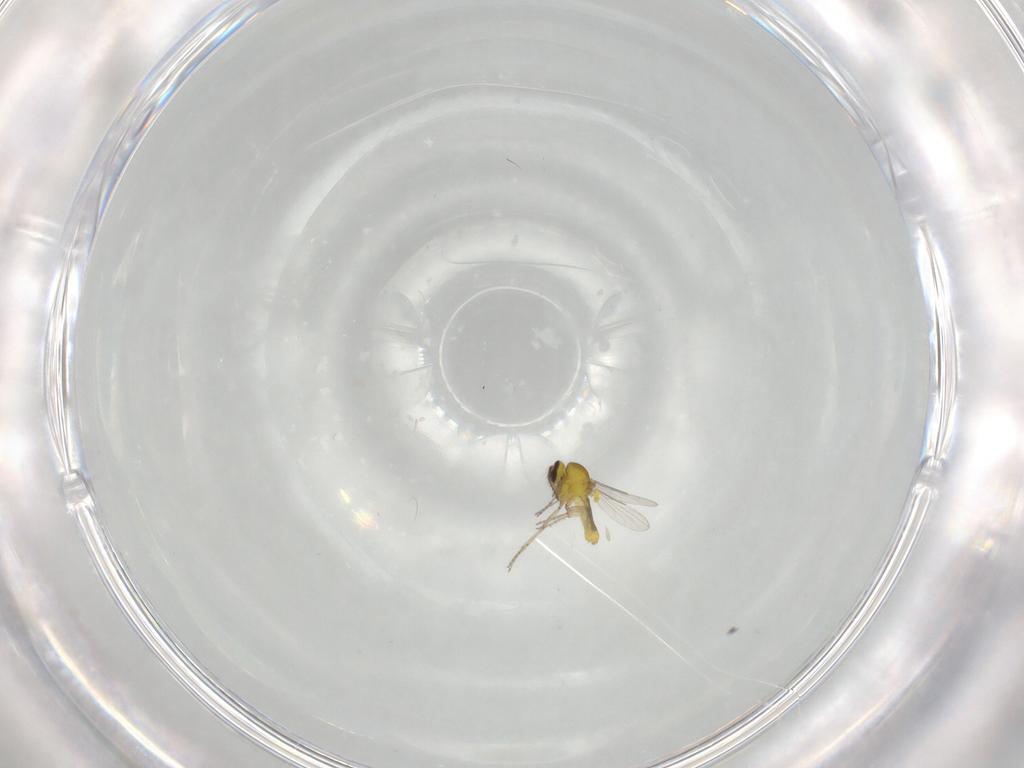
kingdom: Animalia
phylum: Arthropoda
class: Insecta
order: Diptera
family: Ceratopogonidae
